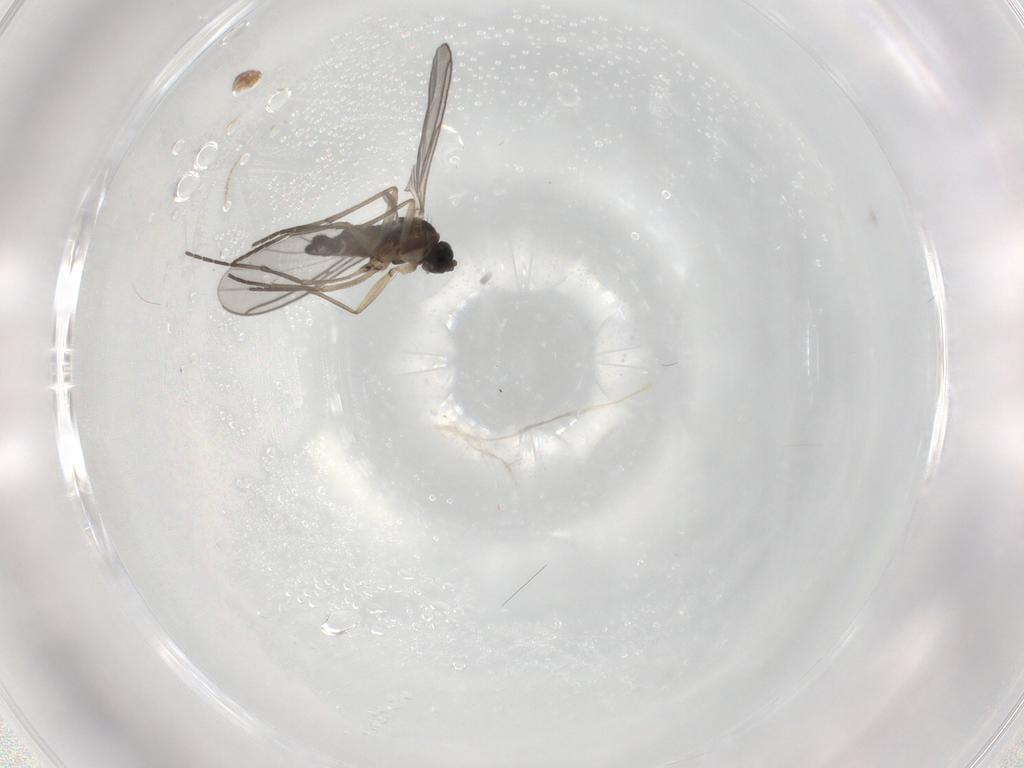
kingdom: Animalia
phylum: Arthropoda
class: Insecta
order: Diptera
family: Sciaridae
